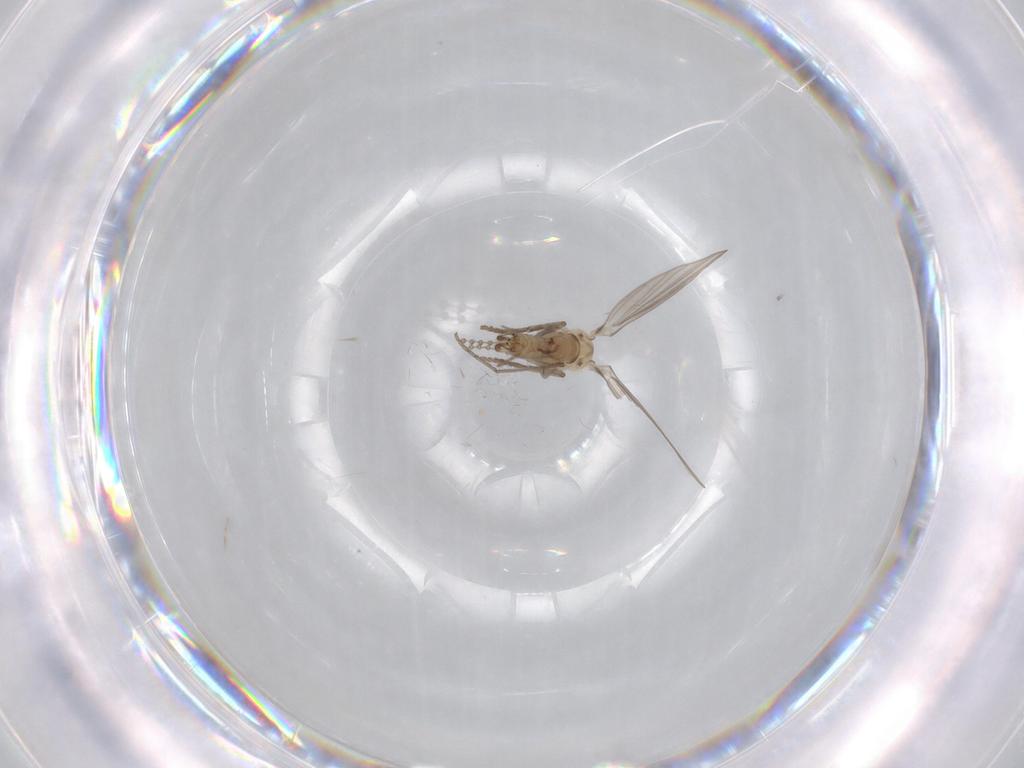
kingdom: Animalia
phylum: Arthropoda
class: Insecta
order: Diptera
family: Psychodidae
